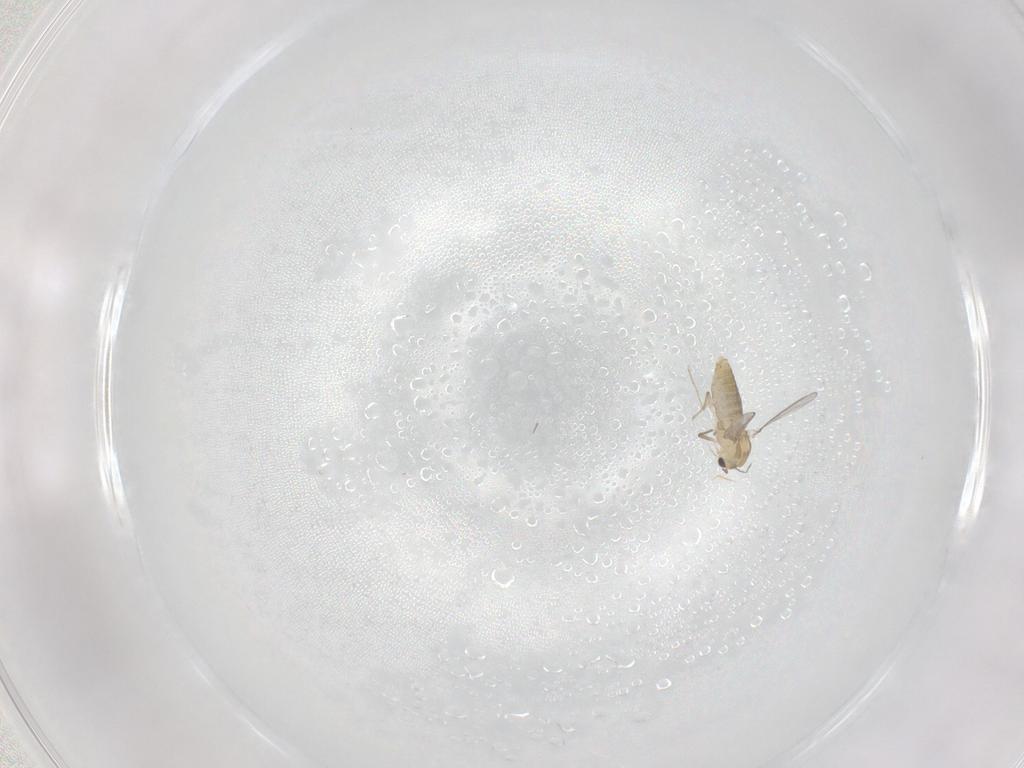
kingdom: Animalia
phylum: Arthropoda
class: Insecta
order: Diptera
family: Chironomidae
